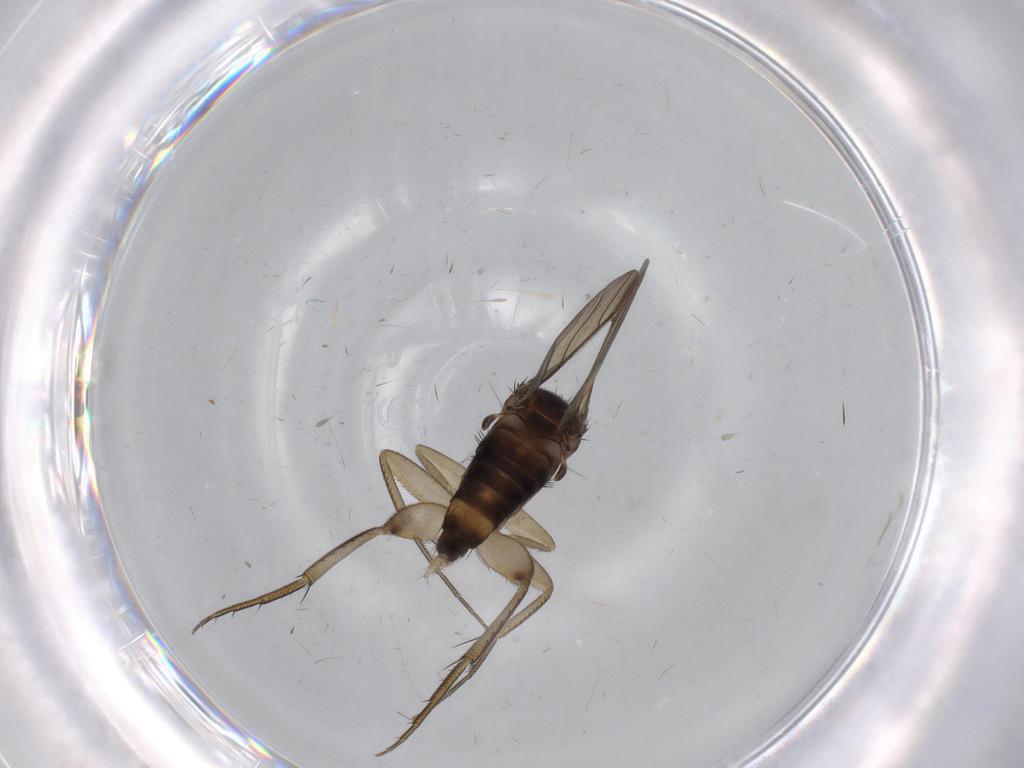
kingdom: Animalia
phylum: Arthropoda
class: Insecta
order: Diptera
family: Phoridae
